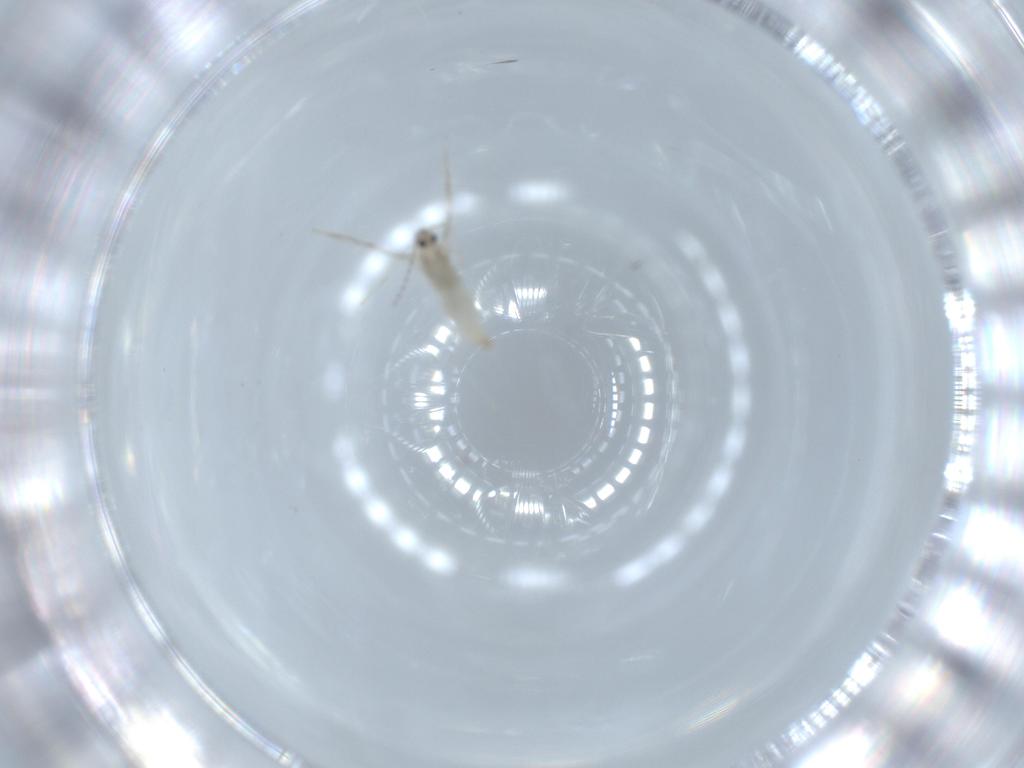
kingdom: Animalia
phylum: Arthropoda
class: Insecta
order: Diptera
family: Cecidomyiidae
